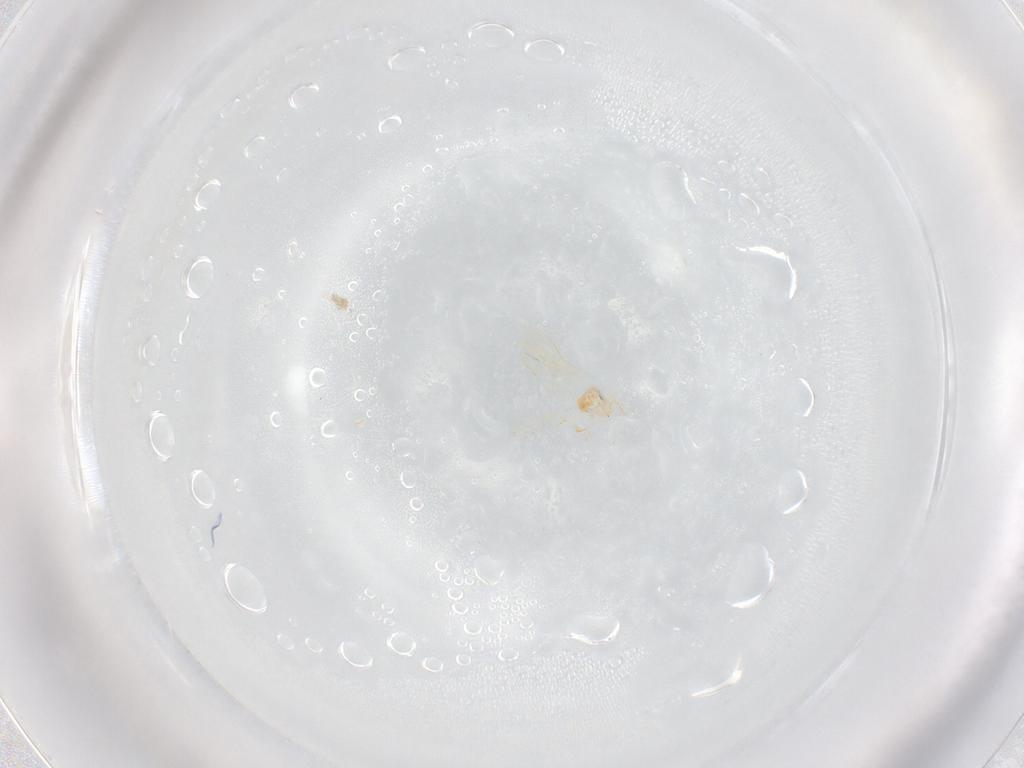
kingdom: Animalia
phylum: Arthropoda
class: Insecta
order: Hemiptera
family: Aleyrodidae
